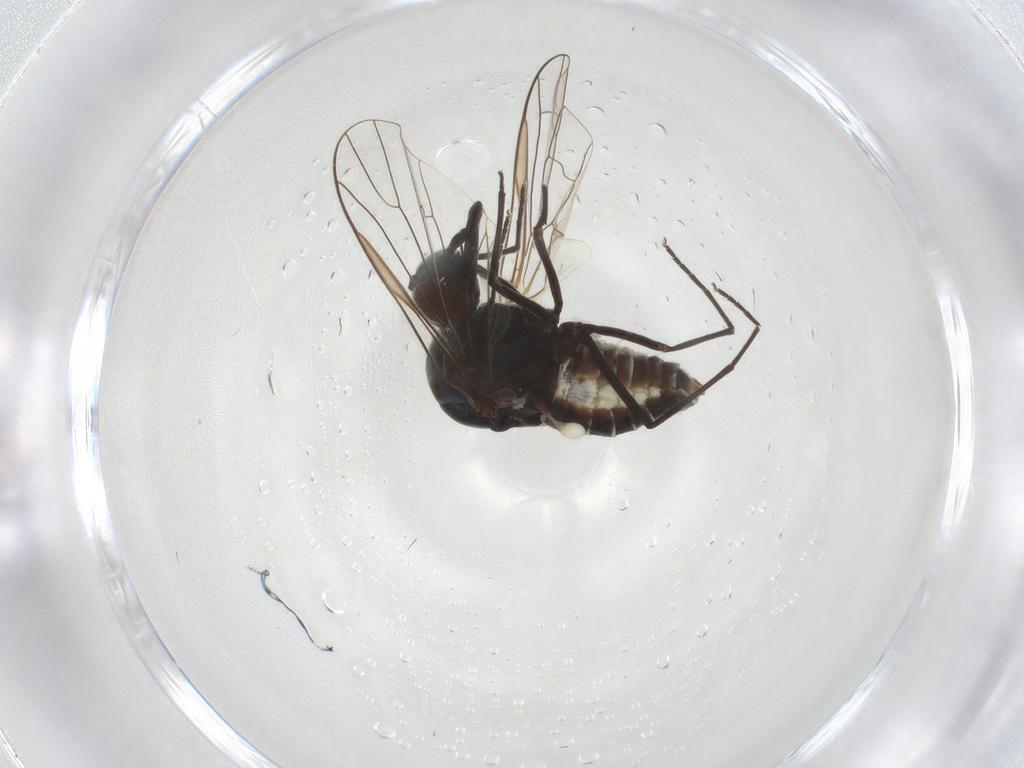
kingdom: Animalia
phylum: Arthropoda
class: Insecta
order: Diptera
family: Bombyliidae
